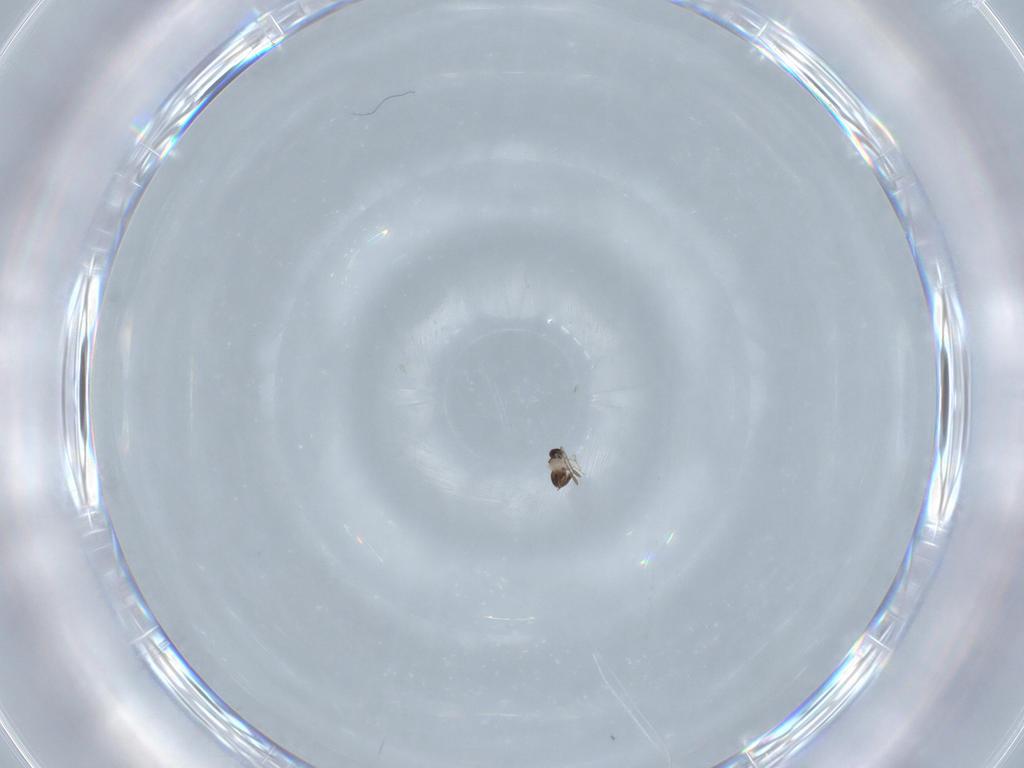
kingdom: Animalia
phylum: Arthropoda
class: Insecta
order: Hymenoptera
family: Mymaridae
